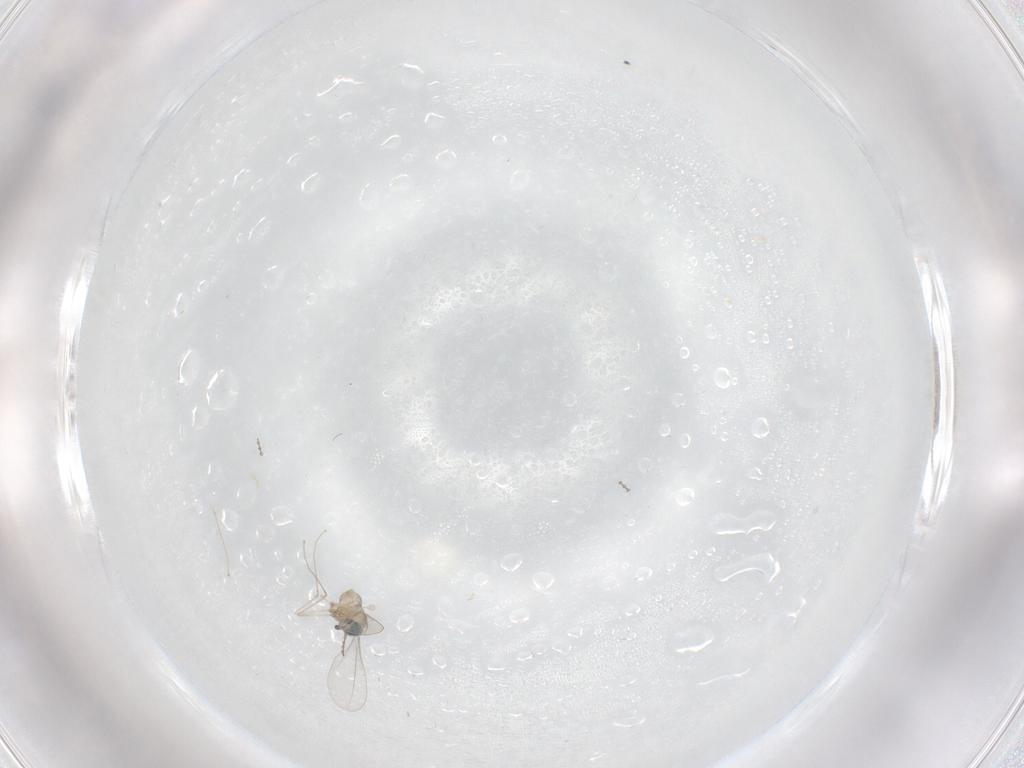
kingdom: Animalia
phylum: Arthropoda
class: Insecta
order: Diptera
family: Cecidomyiidae
